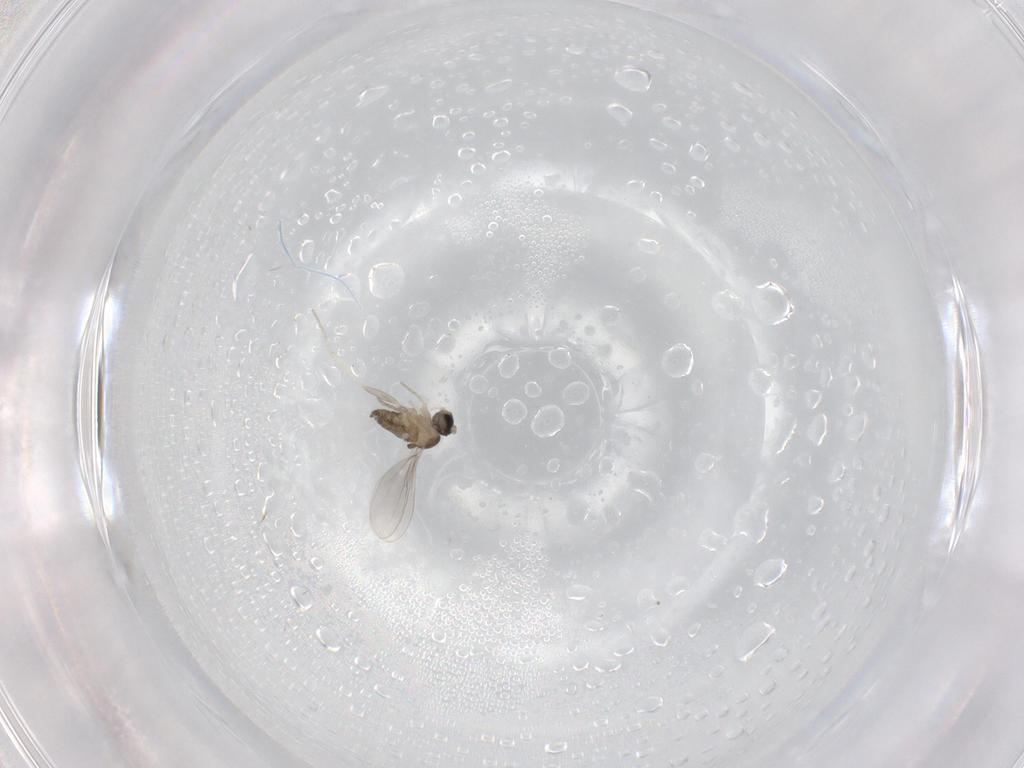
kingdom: Animalia
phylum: Arthropoda
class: Insecta
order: Diptera
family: Cecidomyiidae
